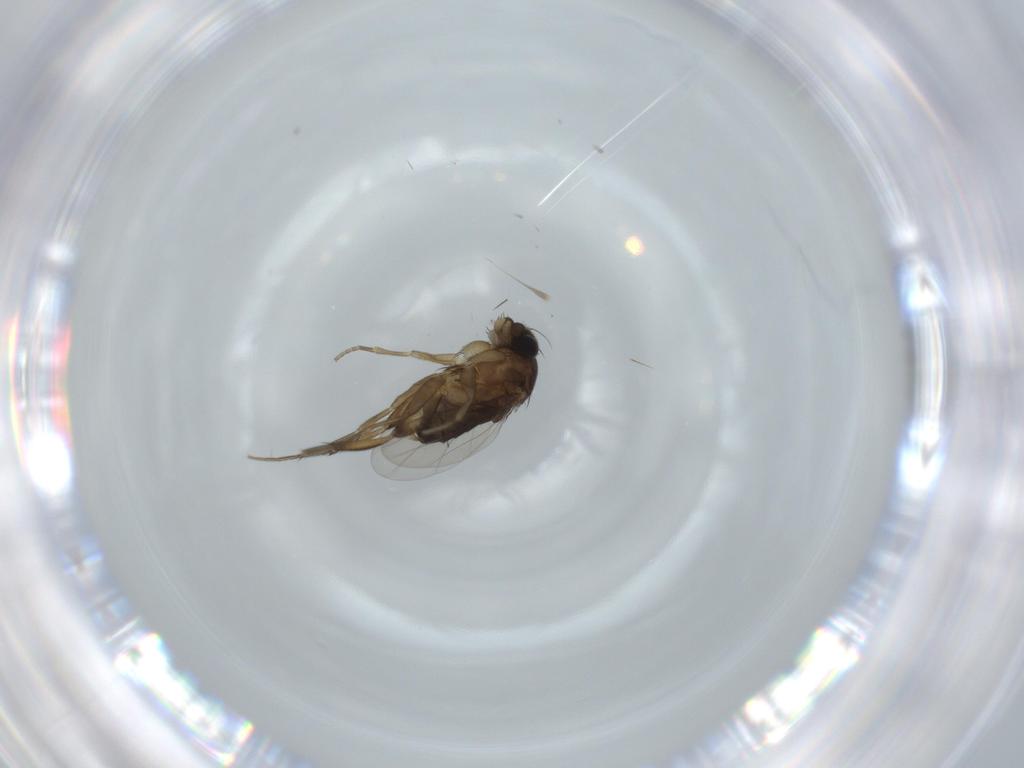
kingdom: Animalia
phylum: Arthropoda
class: Insecta
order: Diptera
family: Phoridae
